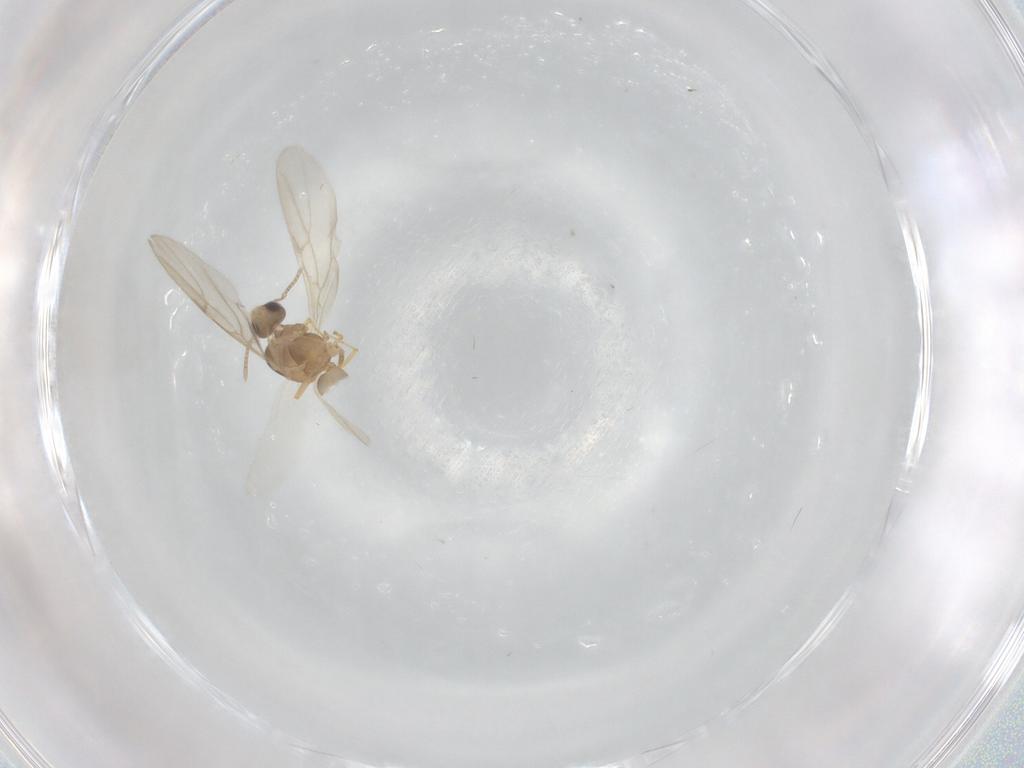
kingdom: Animalia
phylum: Arthropoda
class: Insecta
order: Hymenoptera
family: Formicidae
